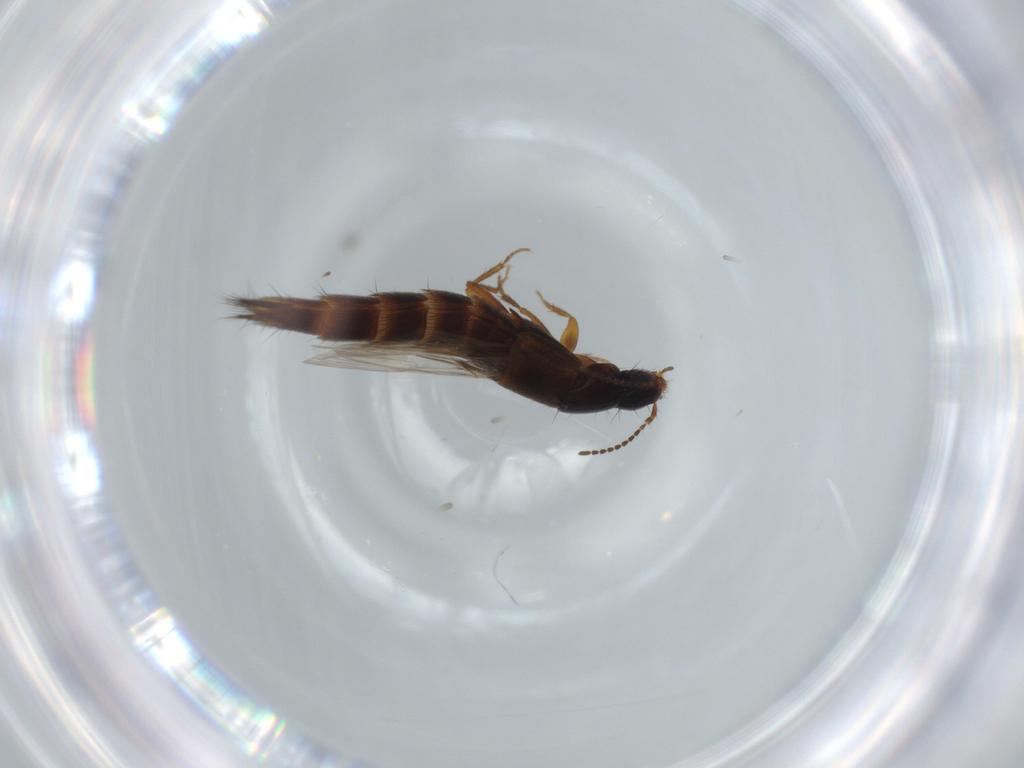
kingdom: Animalia
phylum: Arthropoda
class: Insecta
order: Coleoptera
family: Staphylinidae
